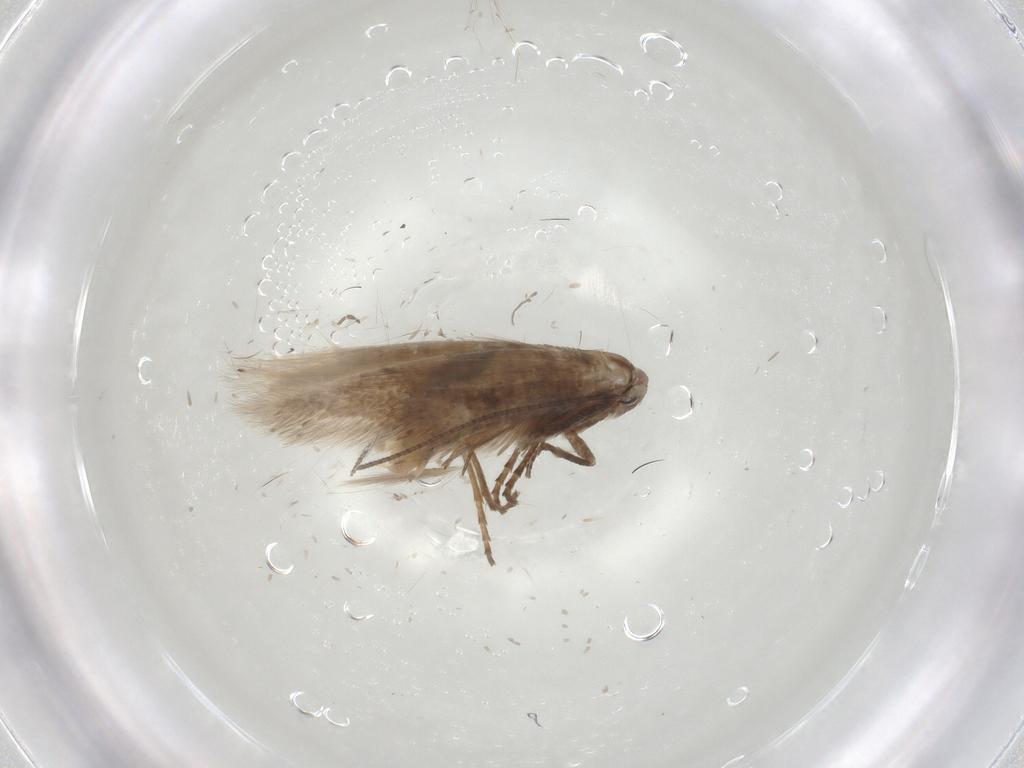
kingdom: Animalia
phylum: Arthropoda
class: Insecta
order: Lepidoptera
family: Bucculatricidae
